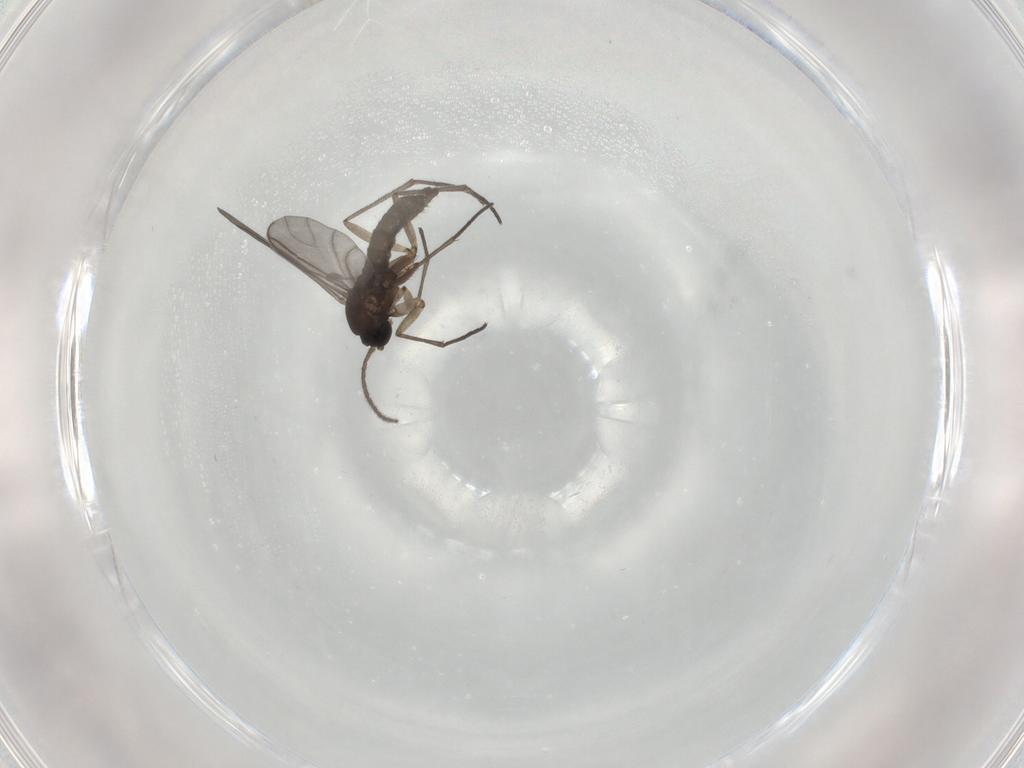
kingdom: Animalia
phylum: Arthropoda
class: Insecta
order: Diptera
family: Sciaridae
